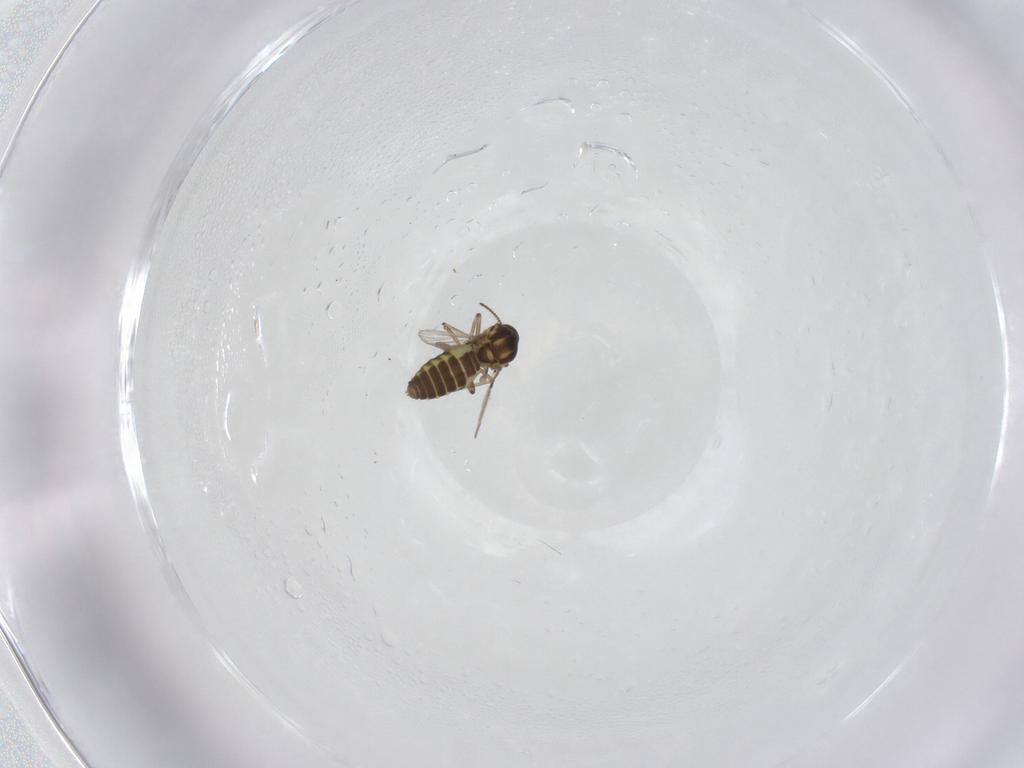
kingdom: Animalia
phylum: Arthropoda
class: Insecta
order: Diptera
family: Ceratopogonidae
